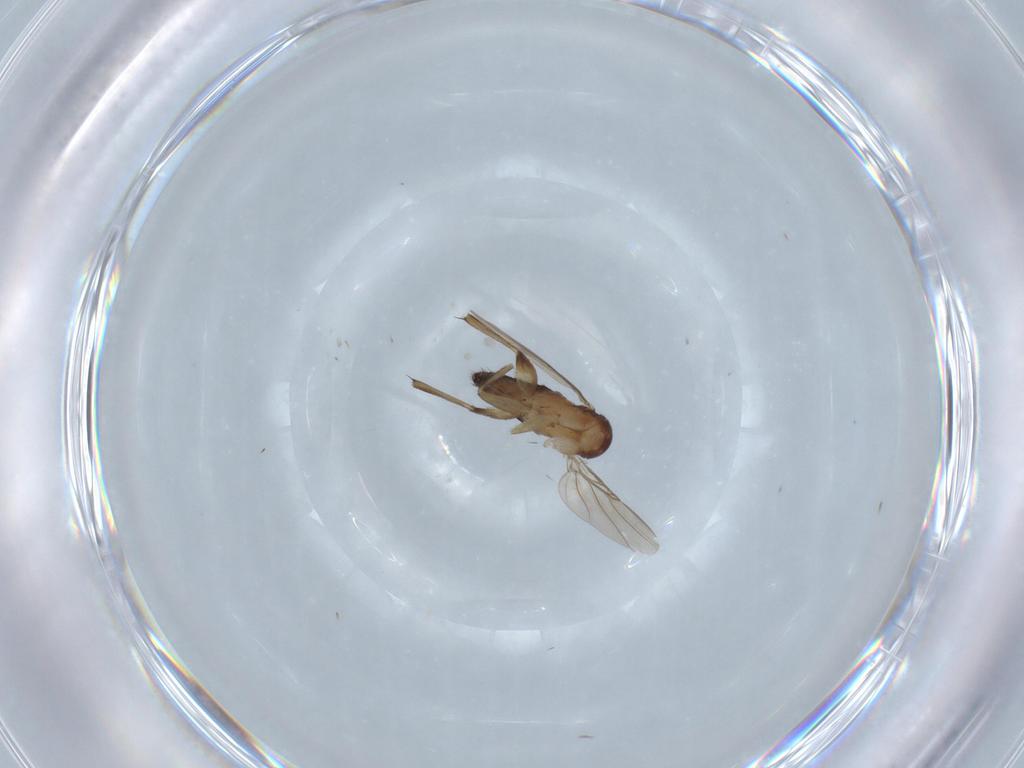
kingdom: Animalia
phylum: Arthropoda
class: Insecta
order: Diptera
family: Phoridae
